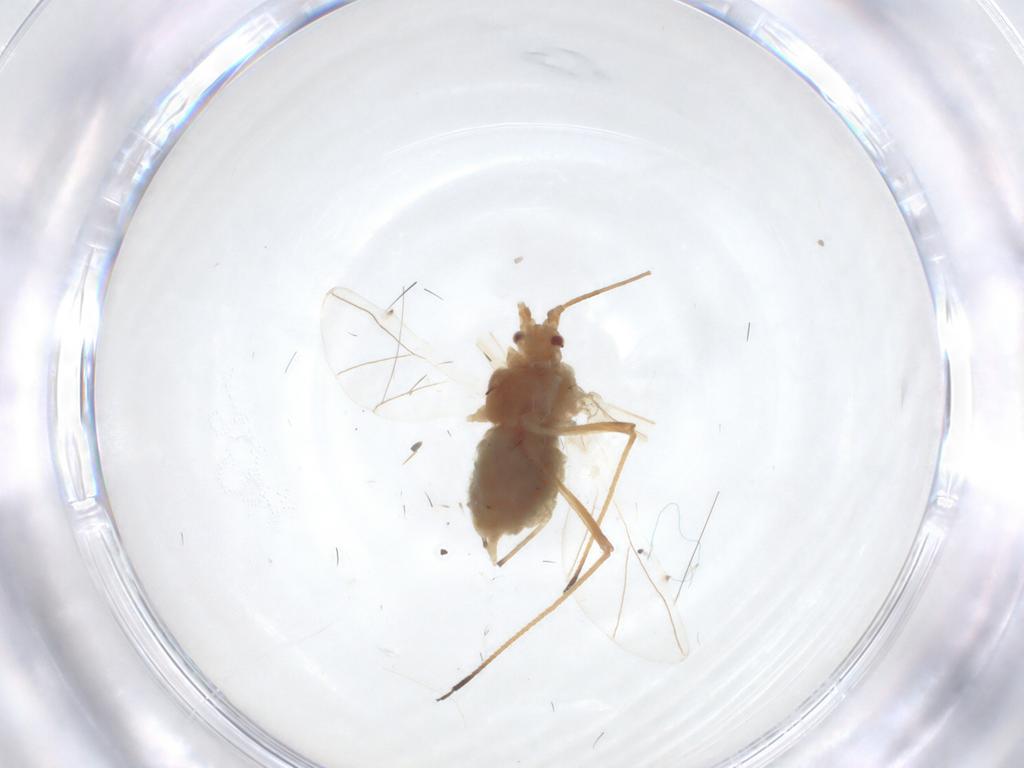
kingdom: Animalia
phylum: Arthropoda
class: Insecta
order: Hemiptera
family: Aphididae
